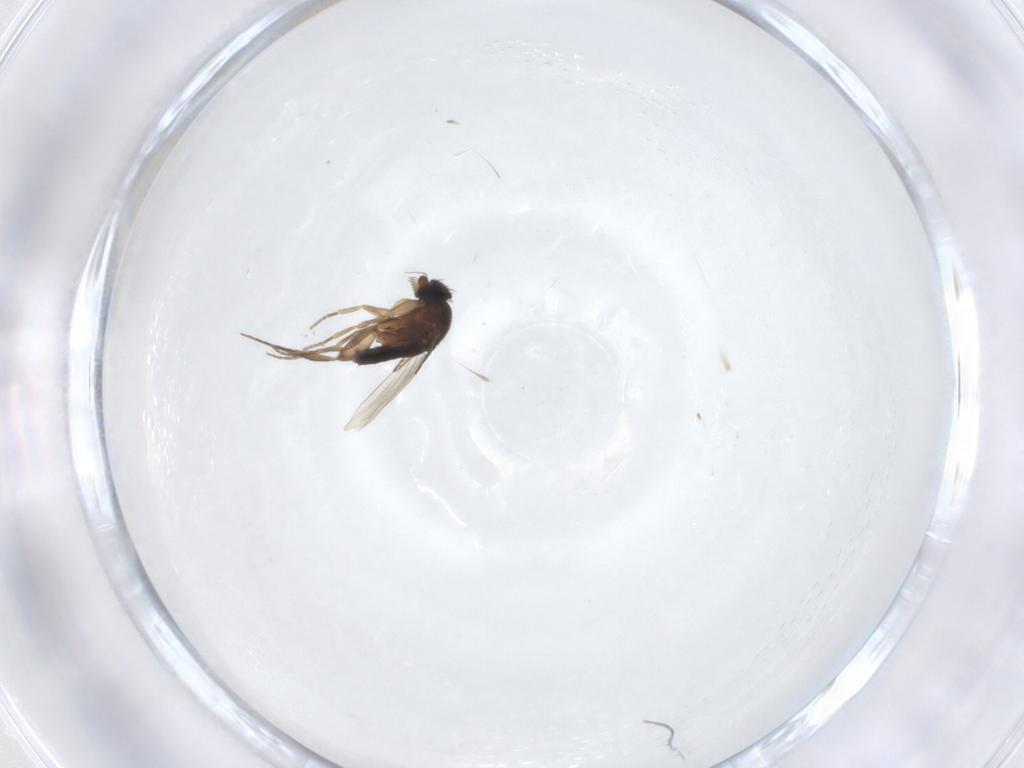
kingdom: Animalia
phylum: Arthropoda
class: Insecta
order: Diptera
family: Phoridae
